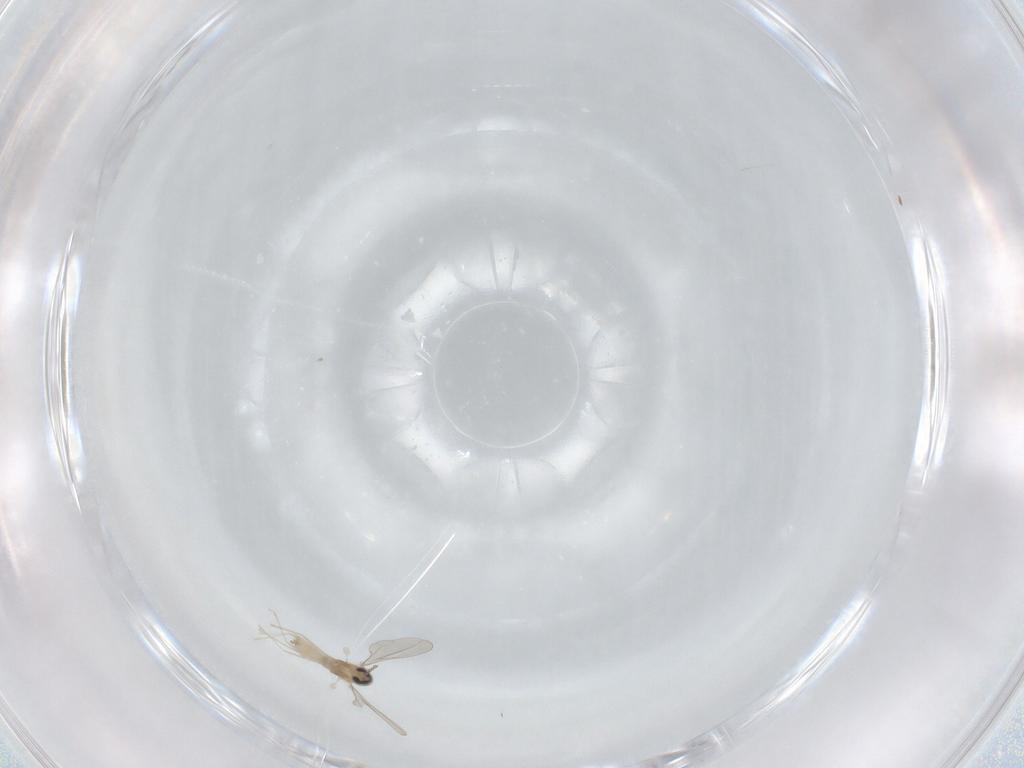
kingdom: Animalia
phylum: Arthropoda
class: Insecta
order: Diptera
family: Cecidomyiidae
